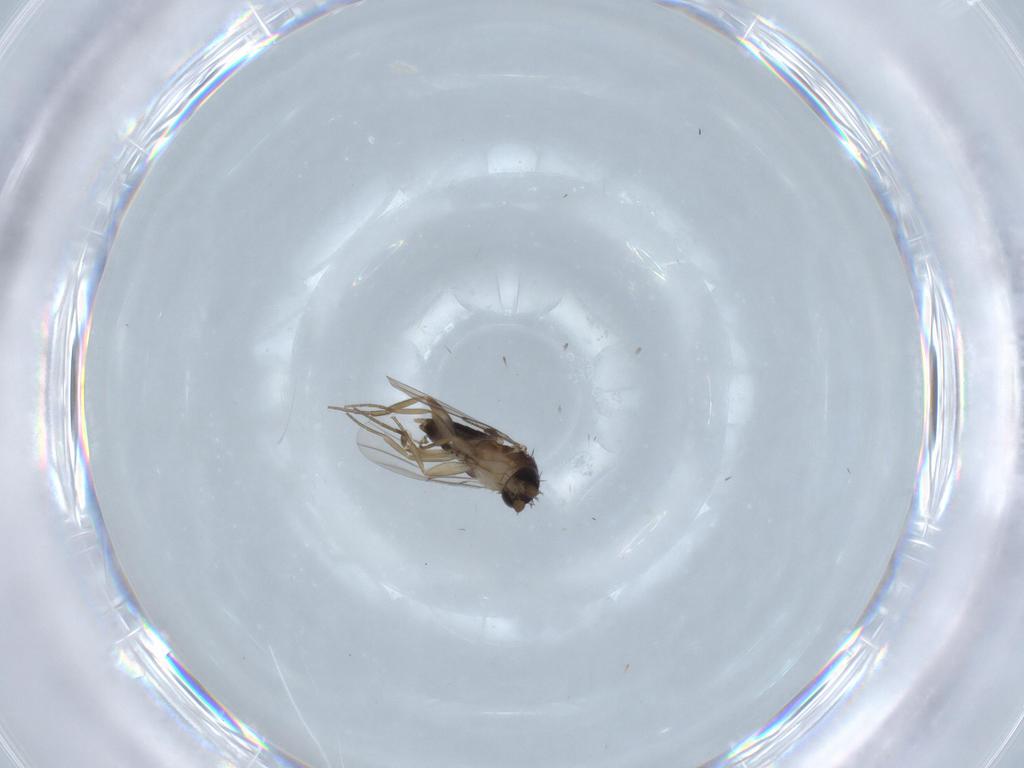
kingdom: Animalia
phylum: Arthropoda
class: Insecta
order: Diptera
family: Phoridae
